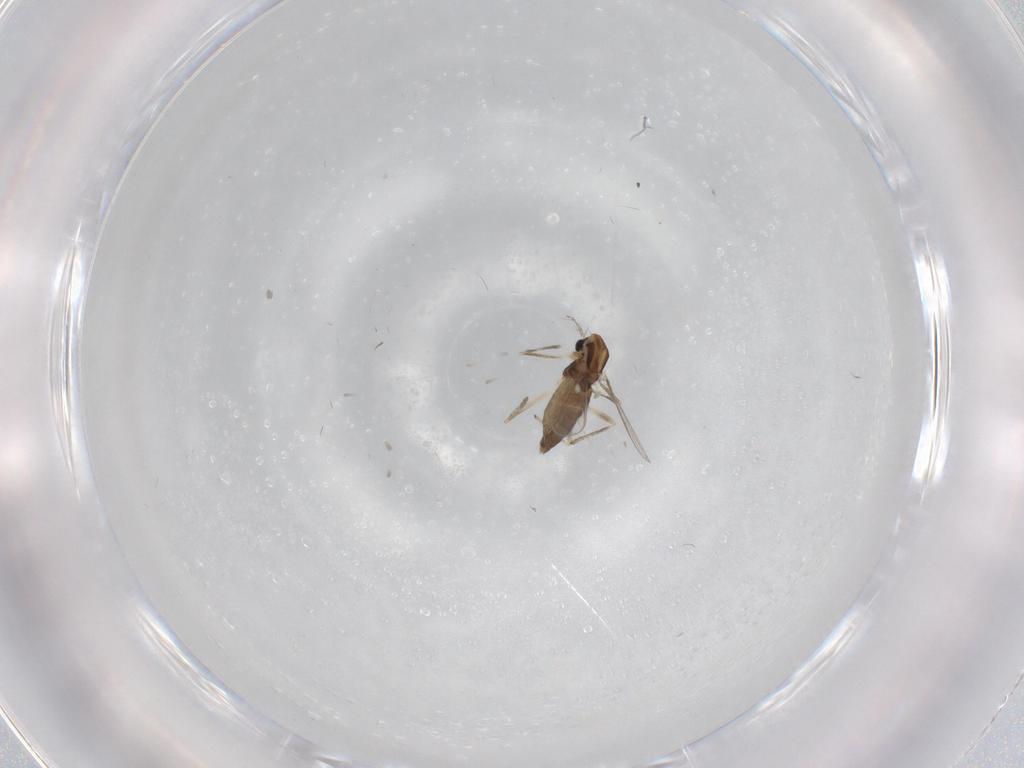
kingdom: Animalia
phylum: Arthropoda
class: Insecta
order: Diptera
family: Chironomidae
